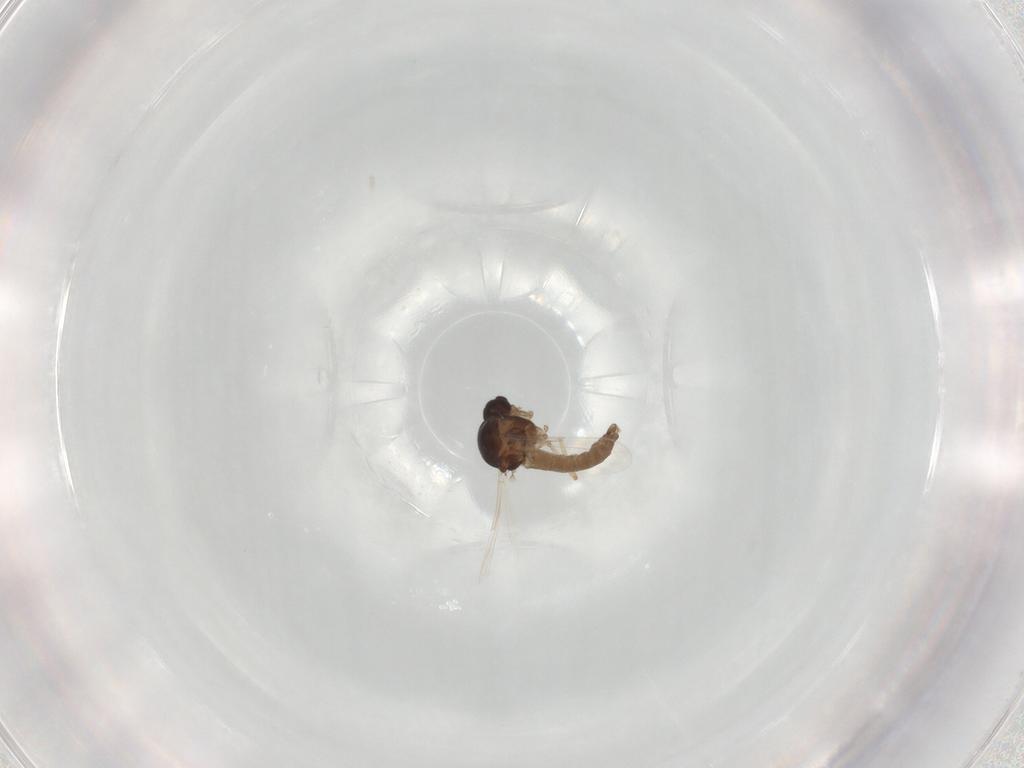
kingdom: Animalia
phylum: Arthropoda
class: Insecta
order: Diptera
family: Ceratopogonidae
